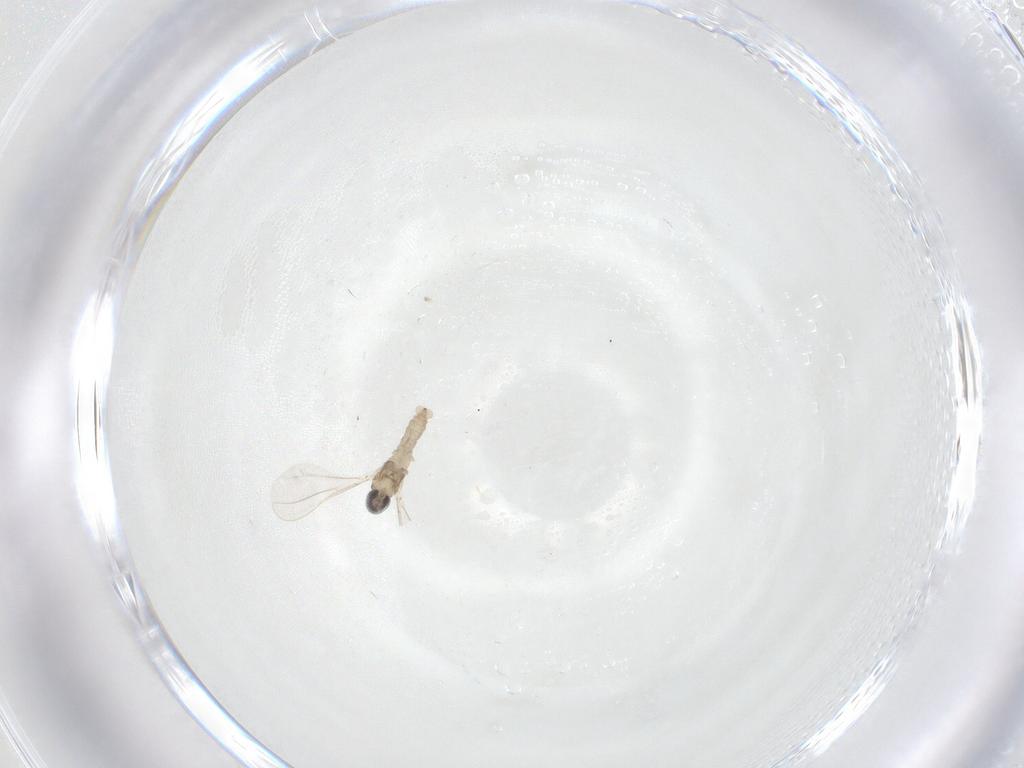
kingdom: Animalia
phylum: Arthropoda
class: Insecta
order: Diptera
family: Cecidomyiidae
